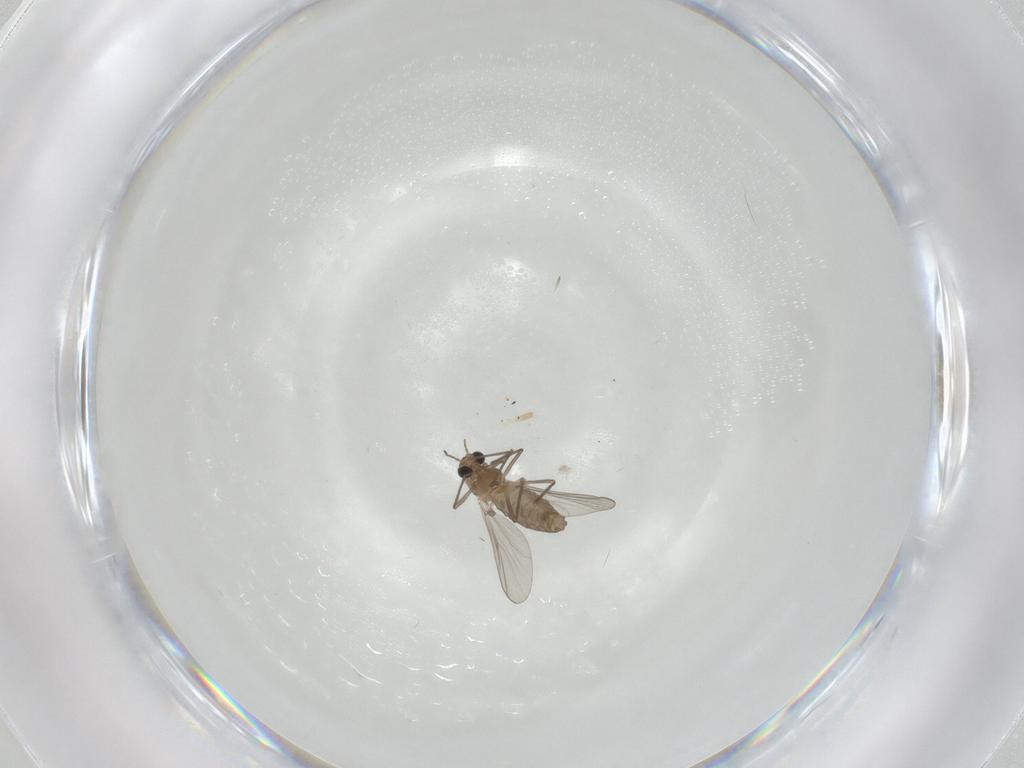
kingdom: Animalia
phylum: Arthropoda
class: Insecta
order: Diptera
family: Chironomidae
